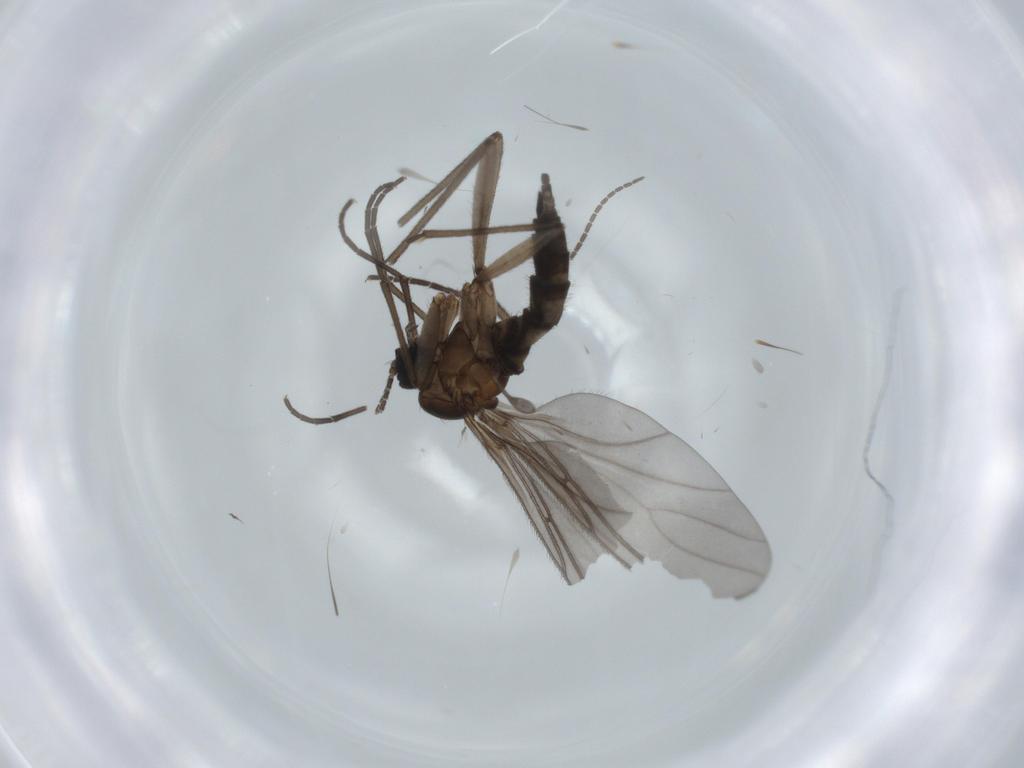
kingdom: Animalia
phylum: Arthropoda
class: Insecta
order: Diptera
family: Sciaridae
